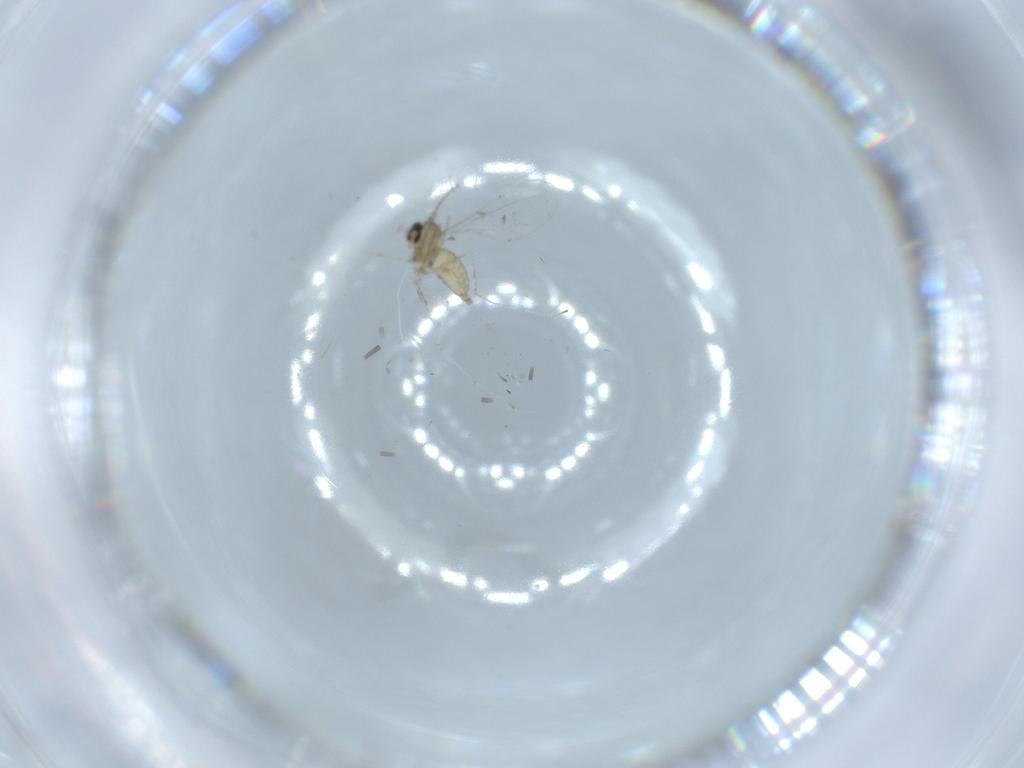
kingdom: Animalia
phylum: Arthropoda
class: Insecta
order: Diptera
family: Cecidomyiidae
